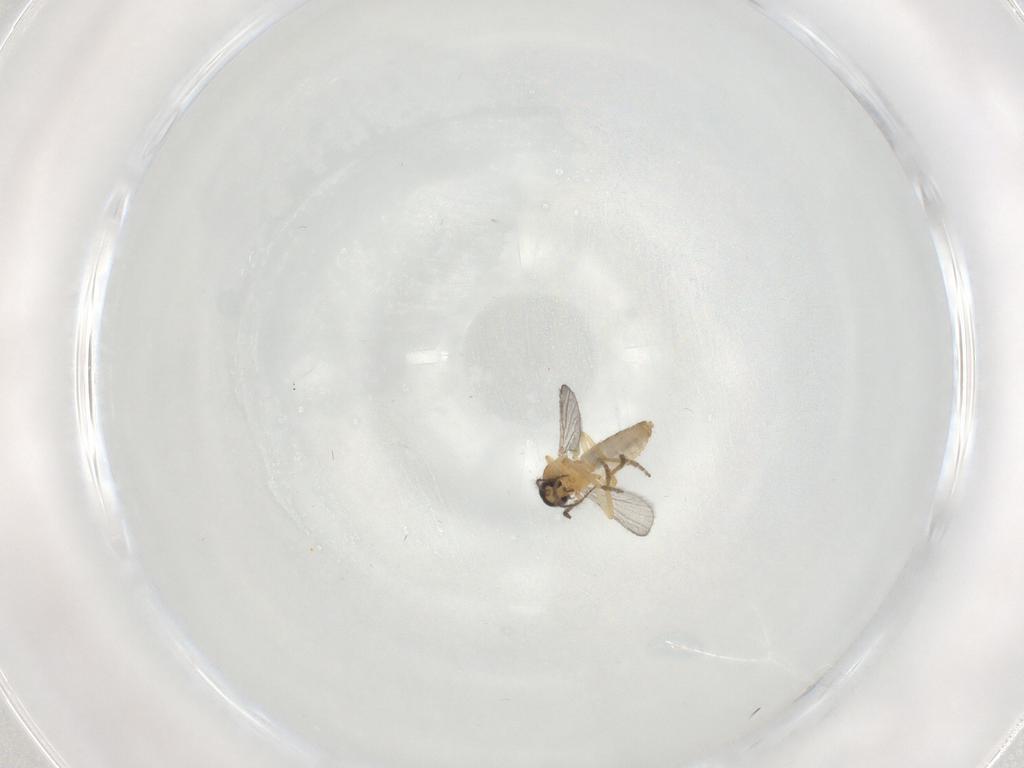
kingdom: Animalia
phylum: Arthropoda
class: Insecta
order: Diptera
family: Ceratopogonidae
